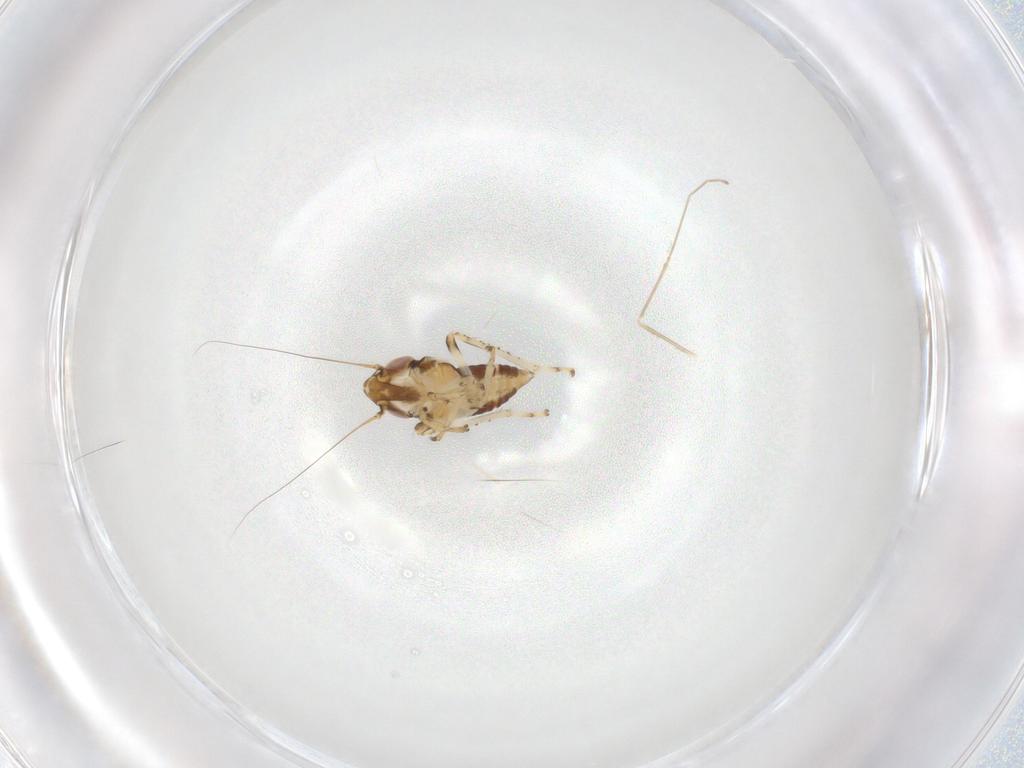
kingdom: Animalia
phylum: Arthropoda
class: Insecta
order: Hemiptera
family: Cicadellidae
